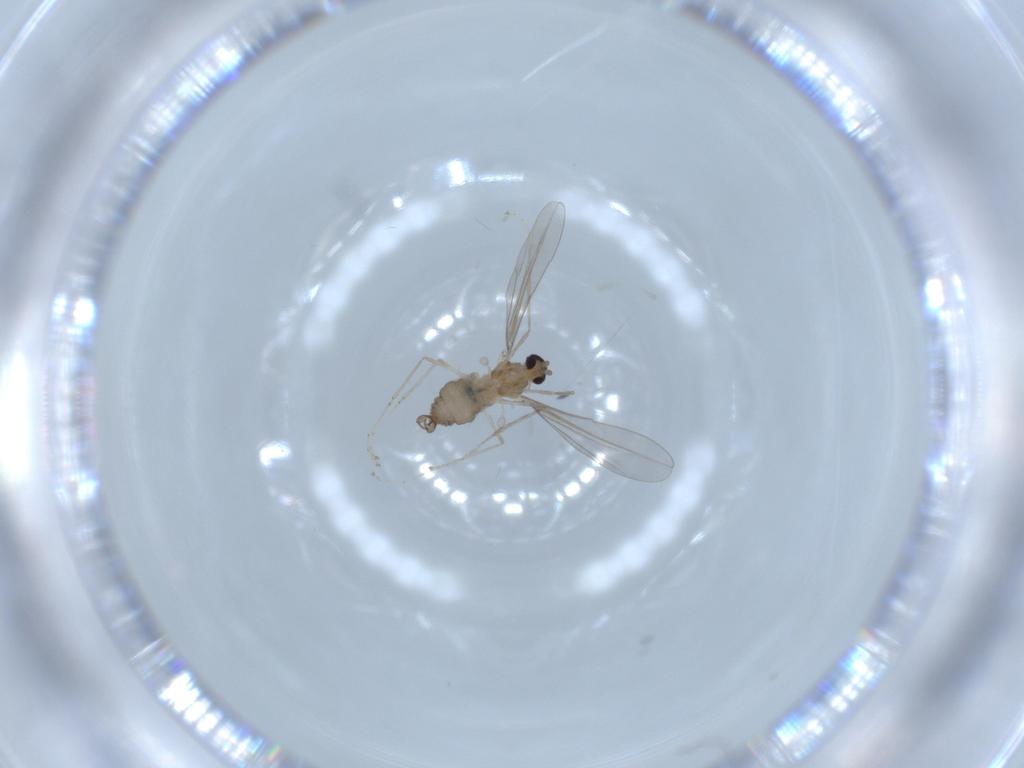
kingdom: Animalia
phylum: Arthropoda
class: Insecta
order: Diptera
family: Cecidomyiidae
